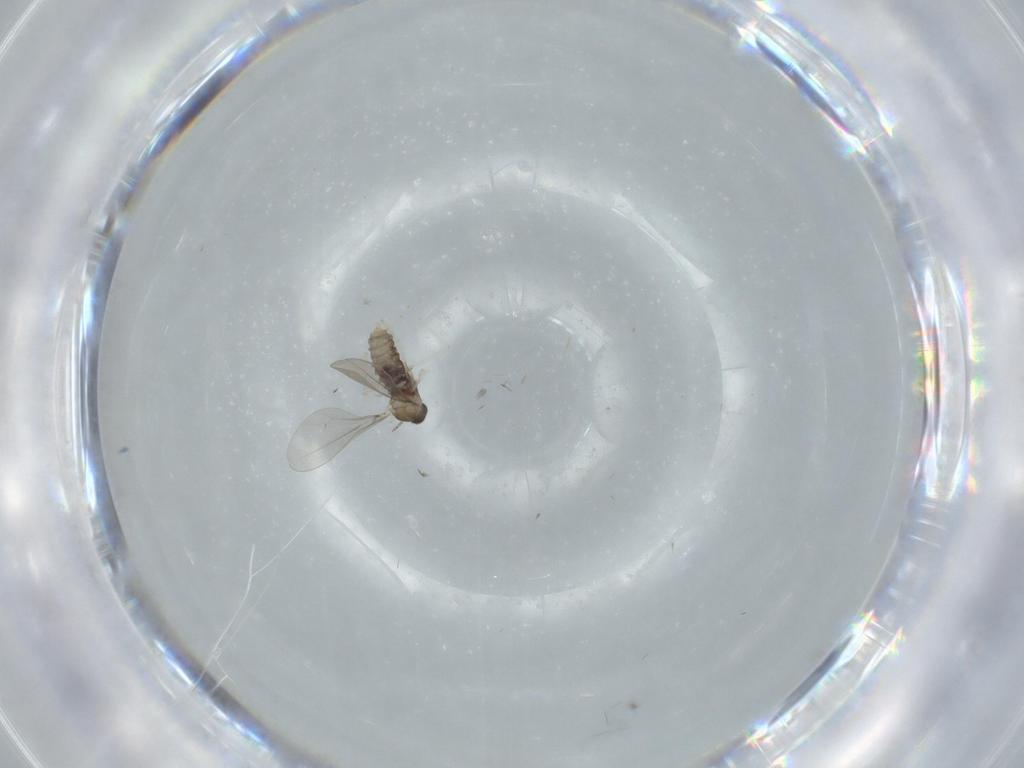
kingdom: Animalia
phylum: Arthropoda
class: Insecta
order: Diptera
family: Cecidomyiidae
